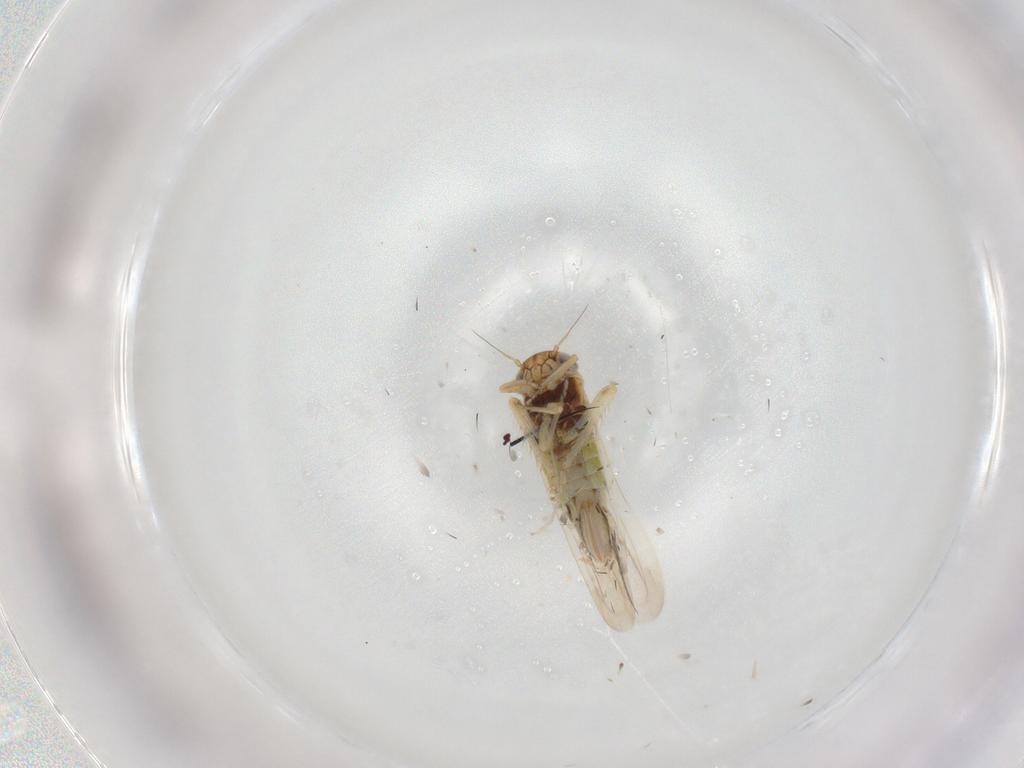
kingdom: Animalia
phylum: Arthropoda
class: Insecta
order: Hemiptera
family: Cicadellidae
